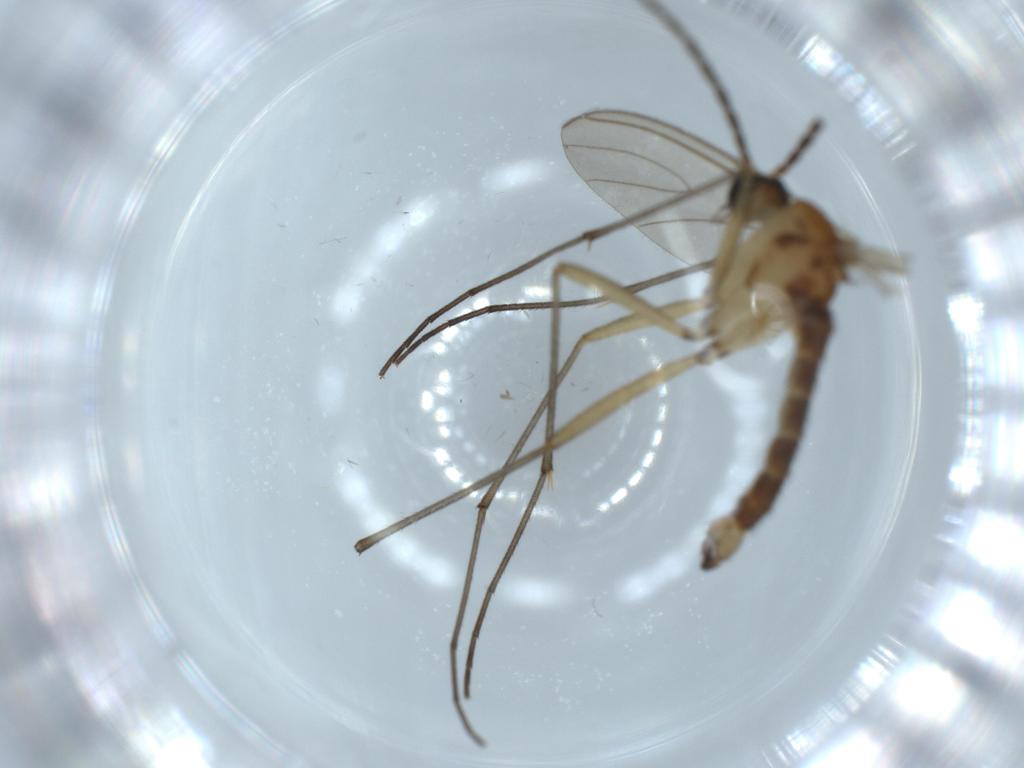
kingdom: Animalia
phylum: Arthropoda
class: Insecta
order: Diptera
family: Sciaridae
